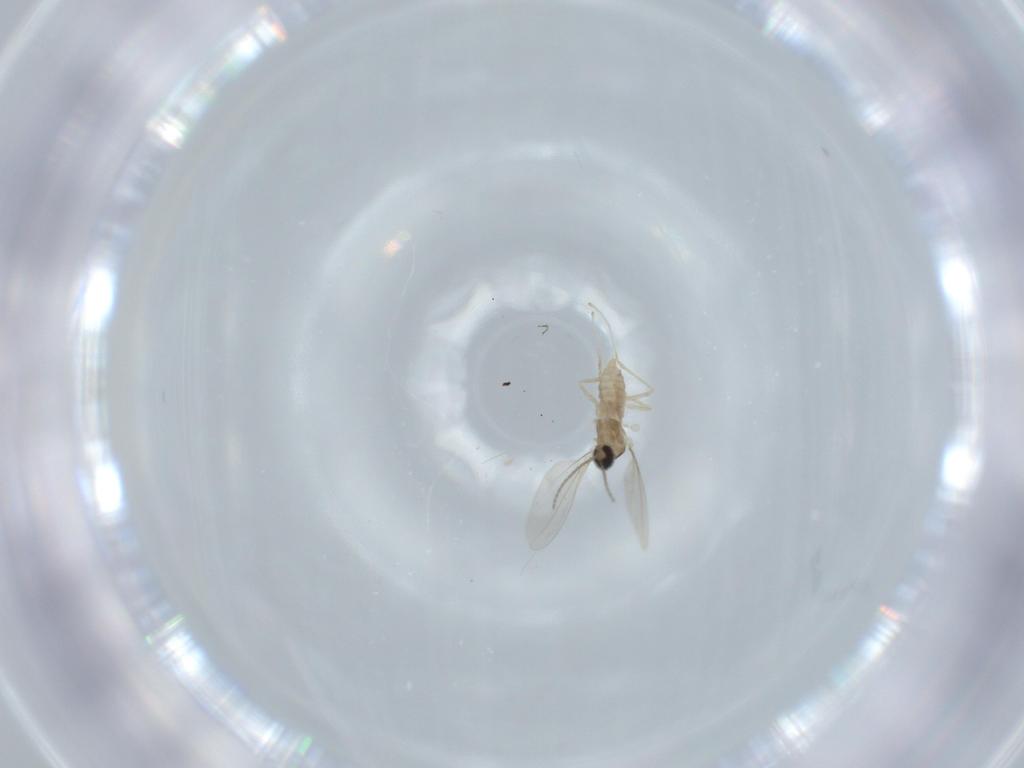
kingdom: Animalia
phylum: Arthropoda
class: Insecta
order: Diptera
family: Cecidomyiidae
